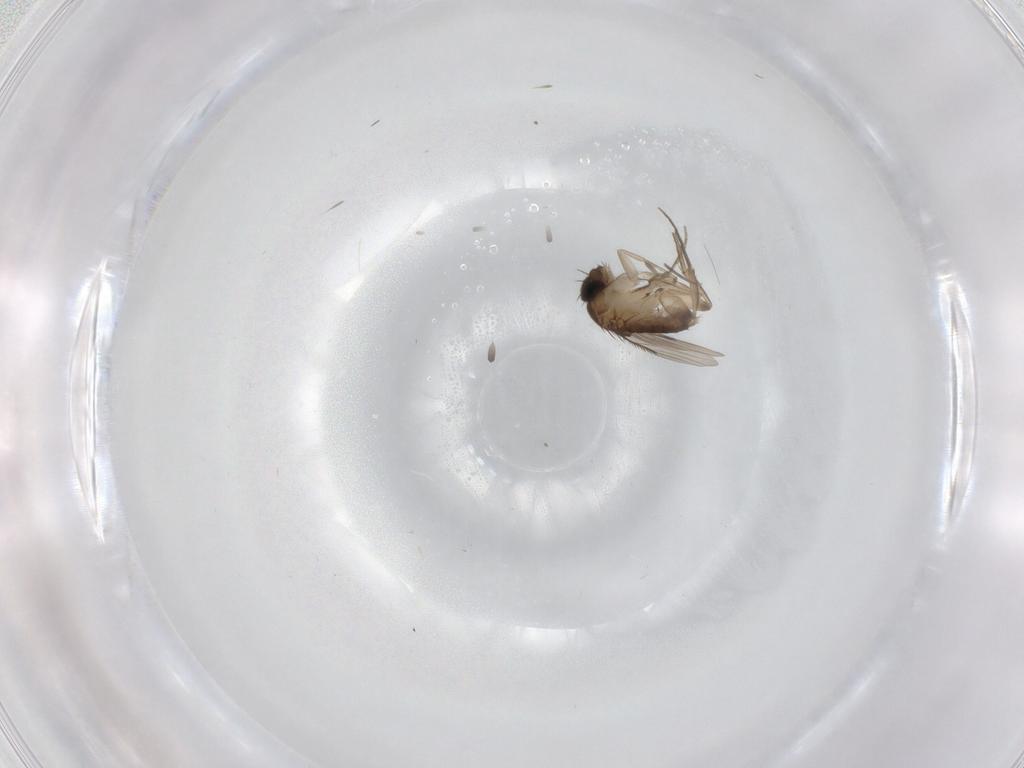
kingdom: Animalia
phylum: Arthropoda
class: Insecta
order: Diptera
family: Phoridae
